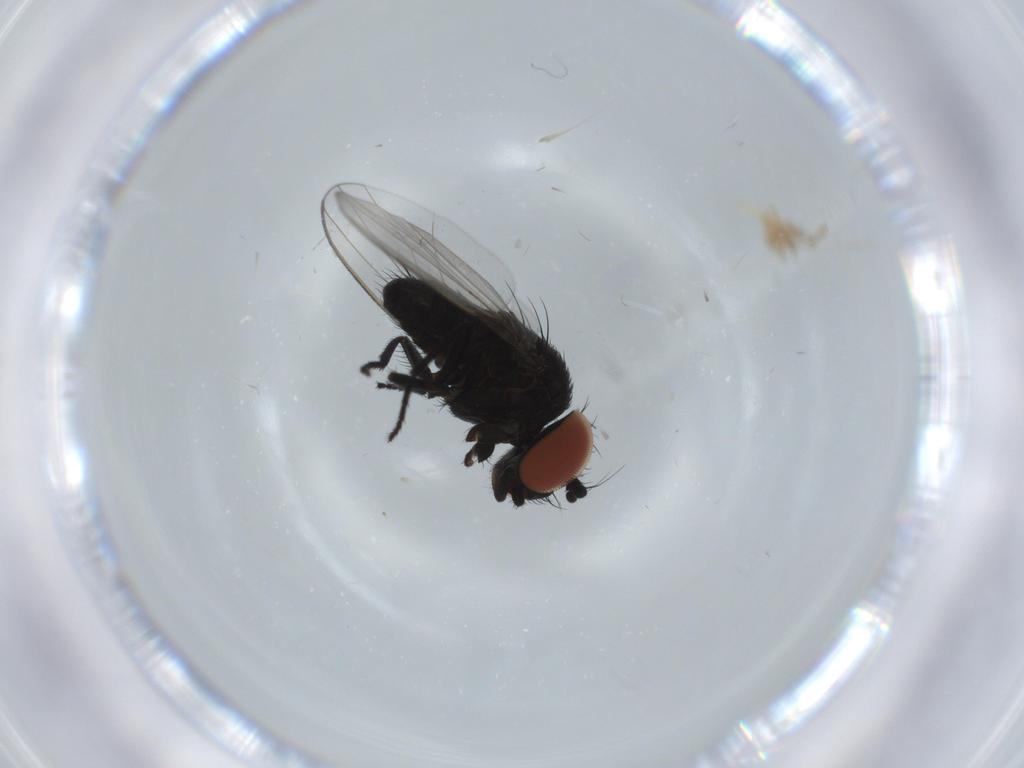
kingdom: Animalia
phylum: Arthropoda
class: Insecta
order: Diptera
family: Milichiidae
